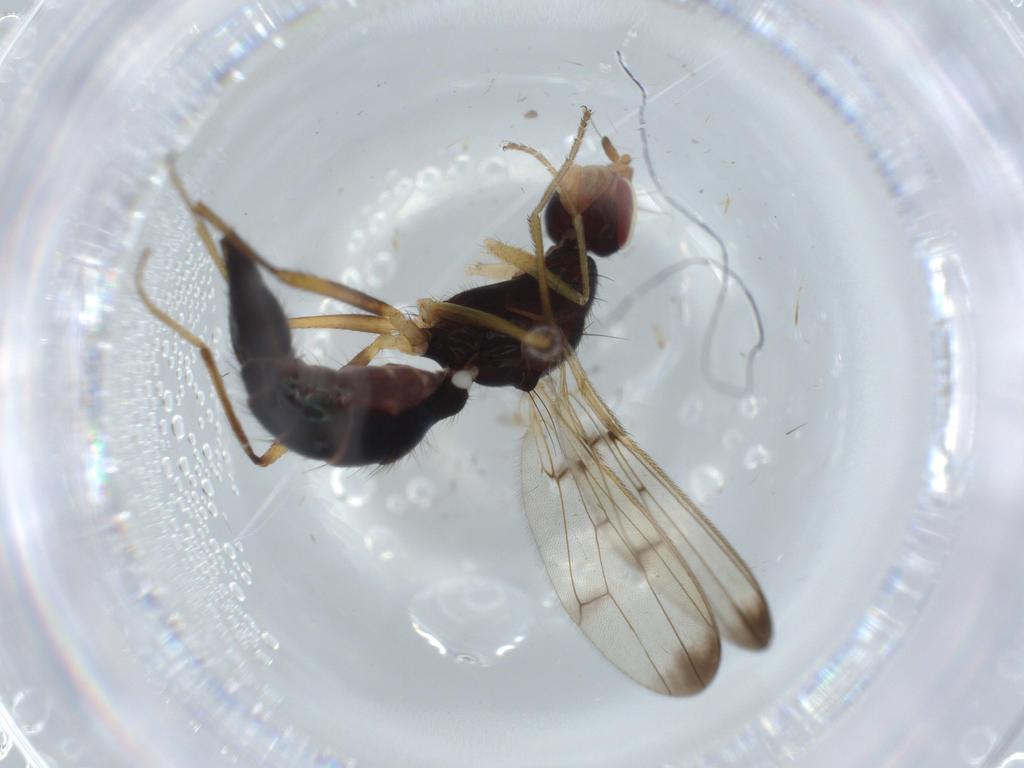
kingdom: Animalia
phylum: Arthropoda
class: Insecta
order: Diptera
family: Psychodidae
